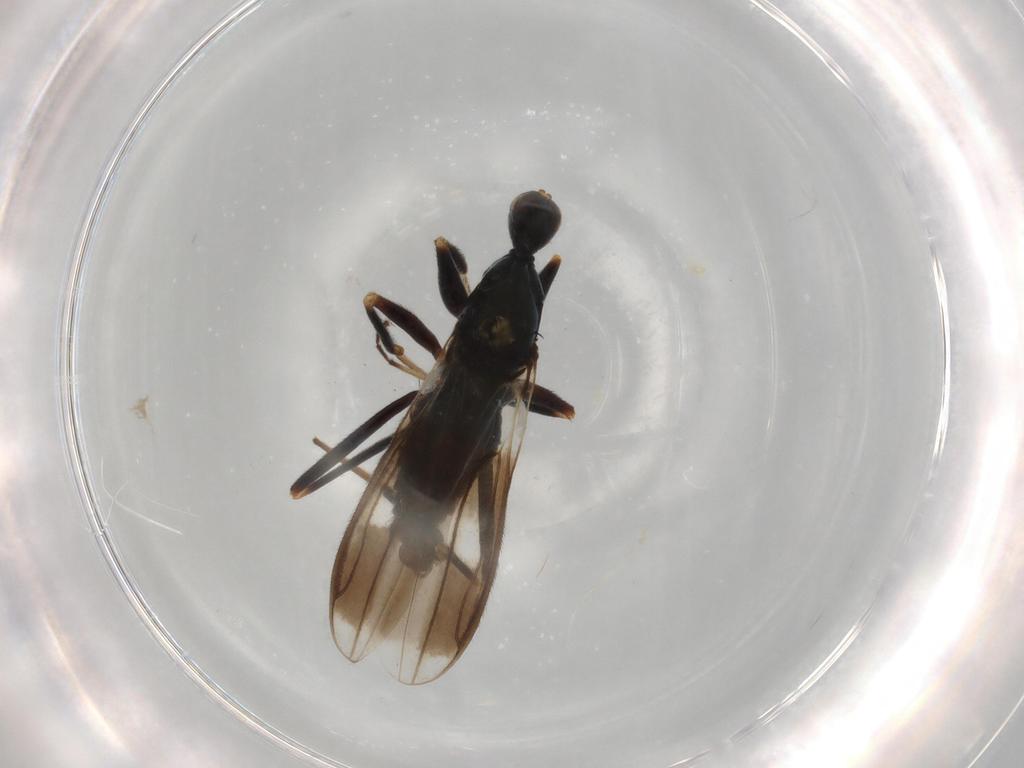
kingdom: Animalia
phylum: Arthropoda
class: Insecta
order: Diptera
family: Hybotidae
